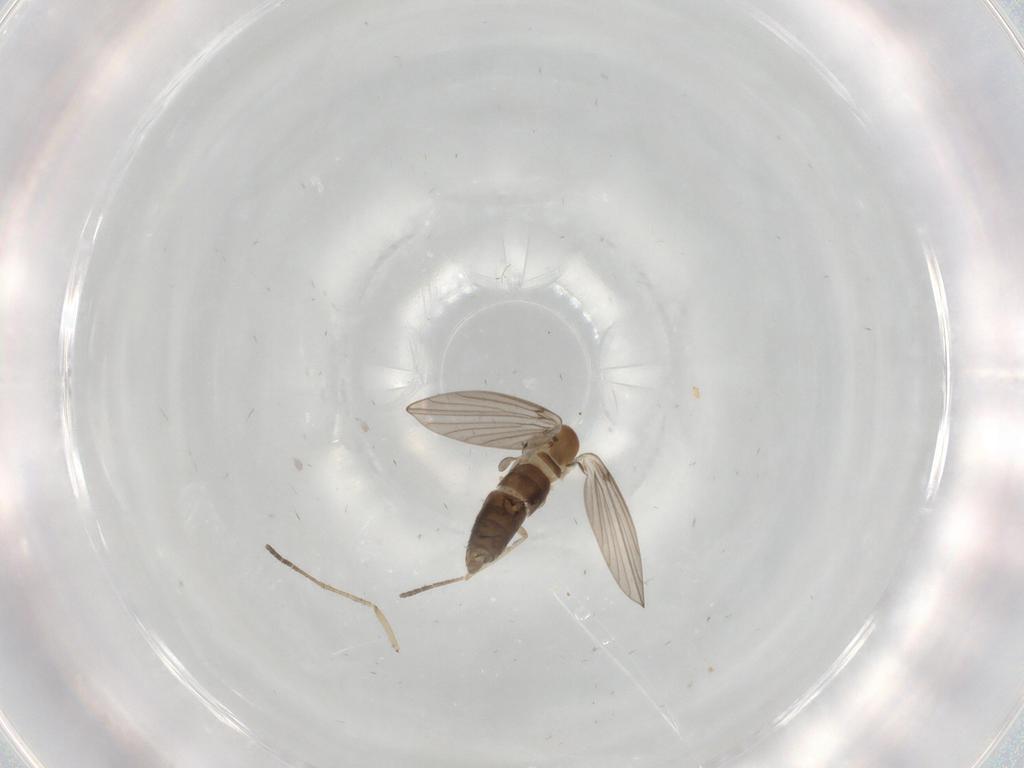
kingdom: Animalia
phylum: Arthropoda
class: Insecta
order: Diptera
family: Psychodidae
